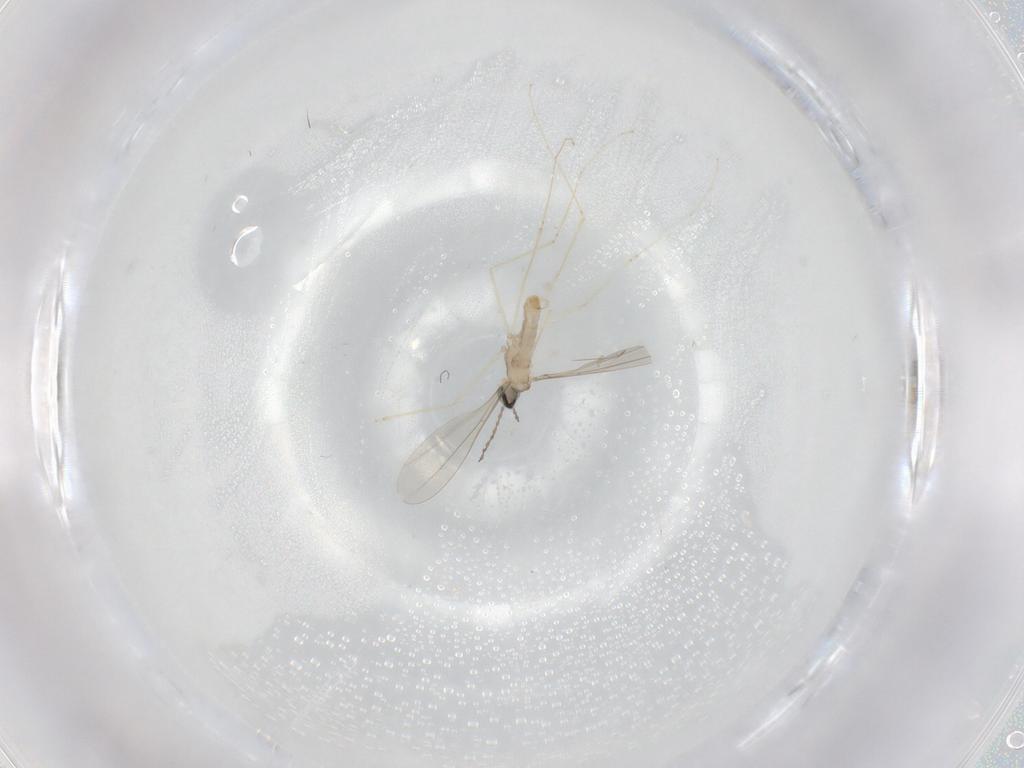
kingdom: Animalia
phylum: Arthropoda
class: Insecta
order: Diptera
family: Cecidomyiidae
